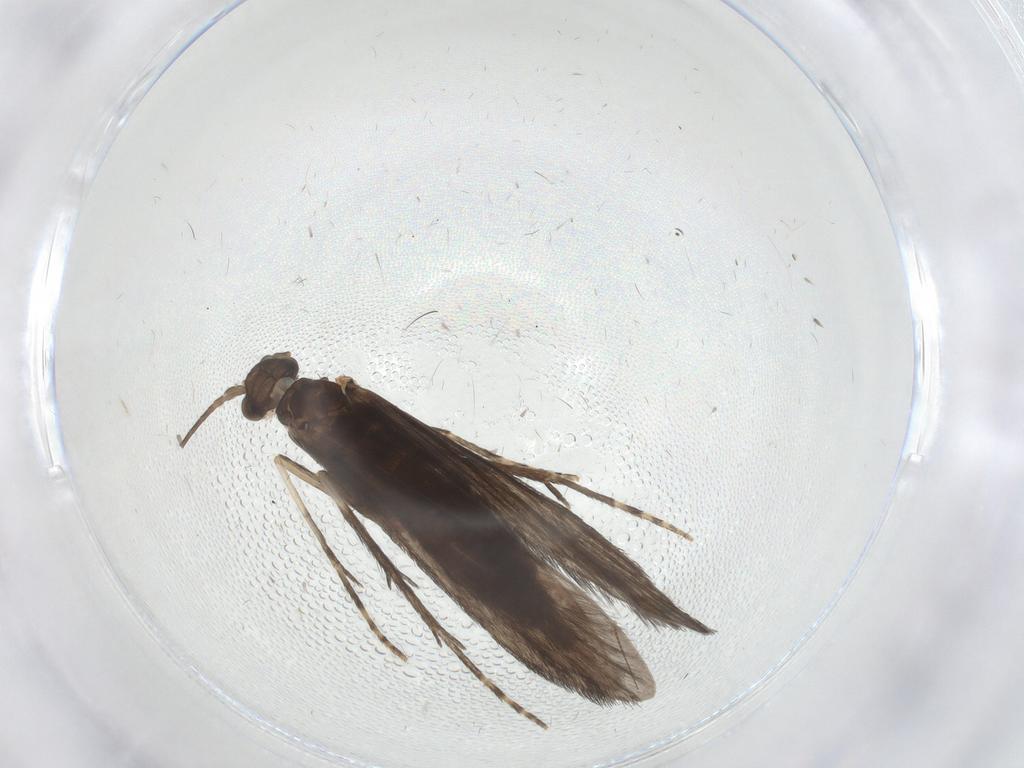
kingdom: Animalia
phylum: Arthropoda
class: Insecta
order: Trichoptera
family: Xiphocentronidae
